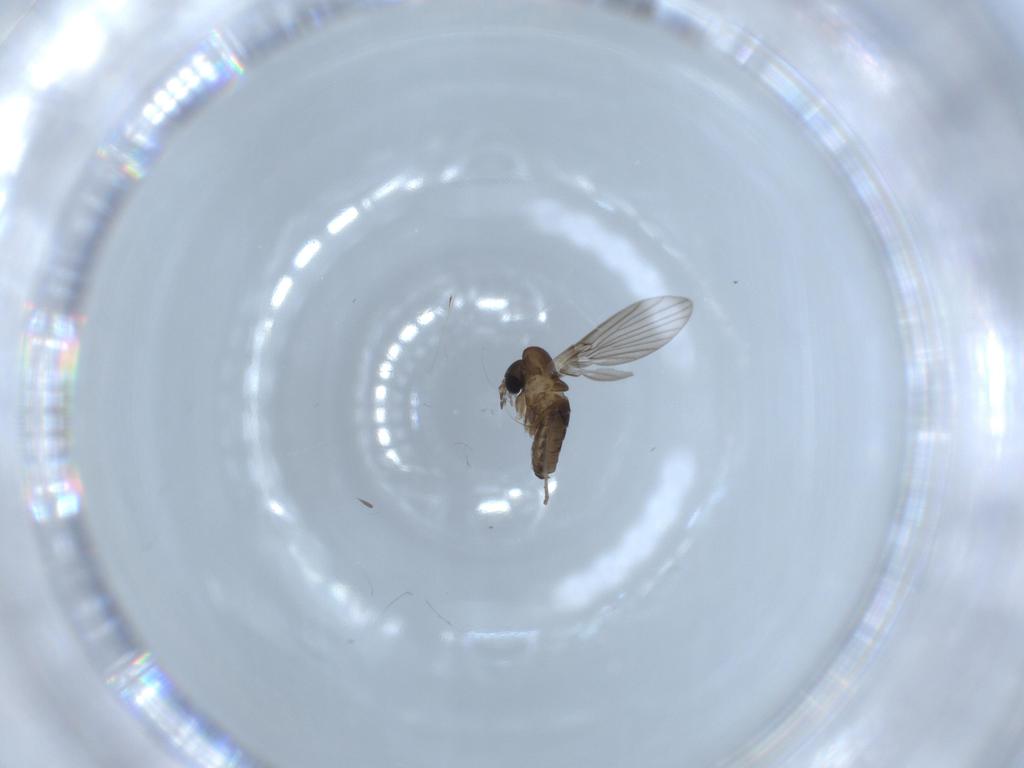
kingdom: Animalia
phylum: Arthropoda
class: Insecta
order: Diptera
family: Psychodidae
